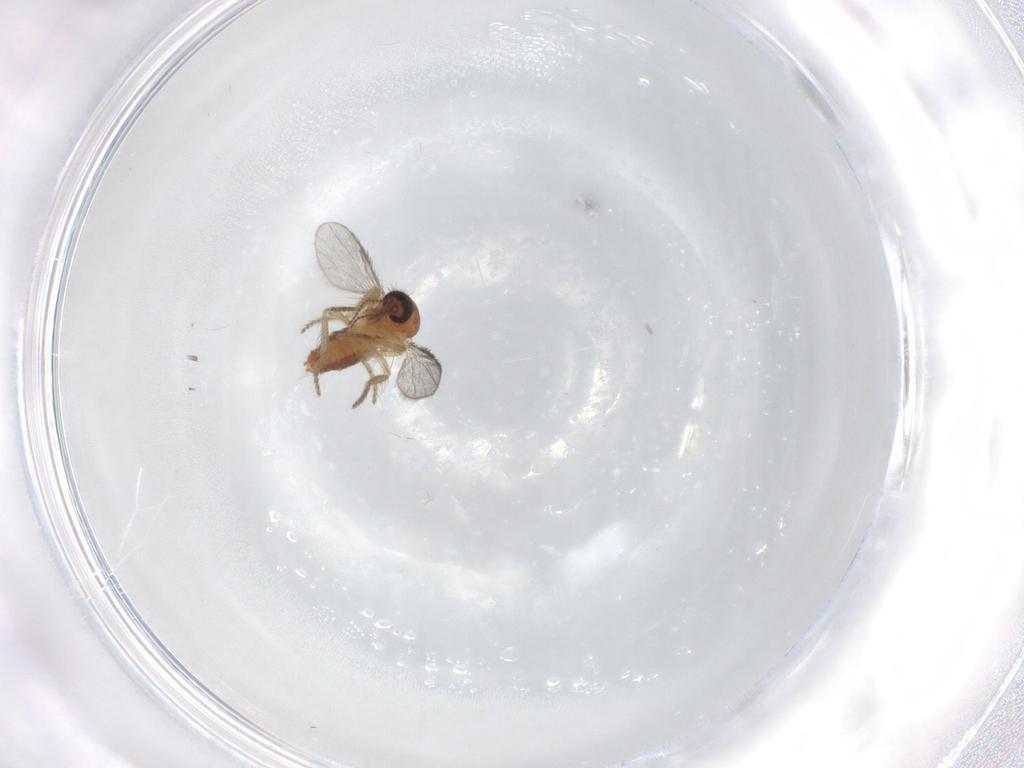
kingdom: Animalia
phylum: Arthropoda
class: Insecta
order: Diptera
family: Ceratopogonidae
